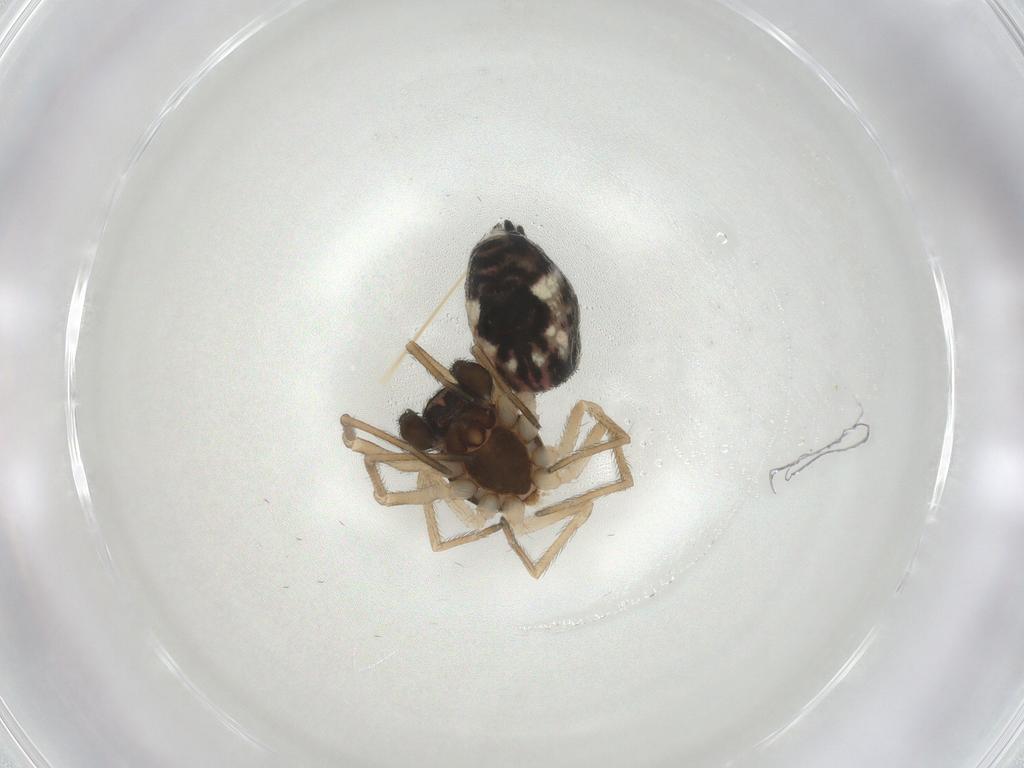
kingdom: Animalia
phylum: Arthropoda
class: Arachnida
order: Araneae
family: Dictynidae
